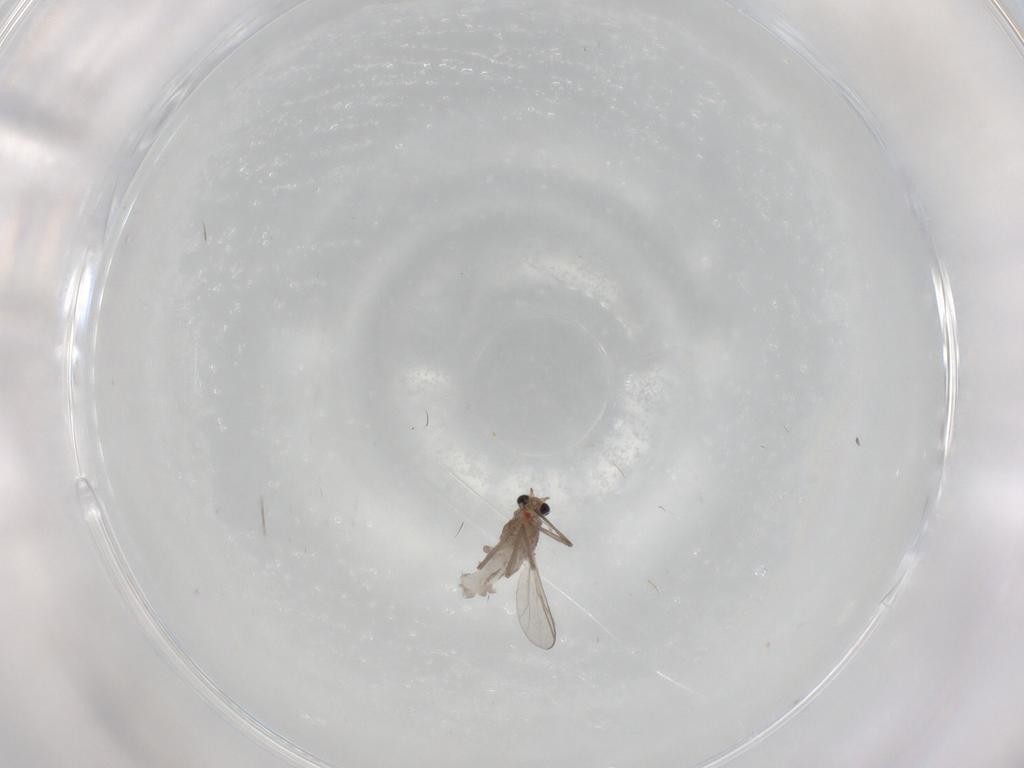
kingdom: Animalia
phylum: Arthropoda
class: Insecta
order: Diptera
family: Chironomidae
